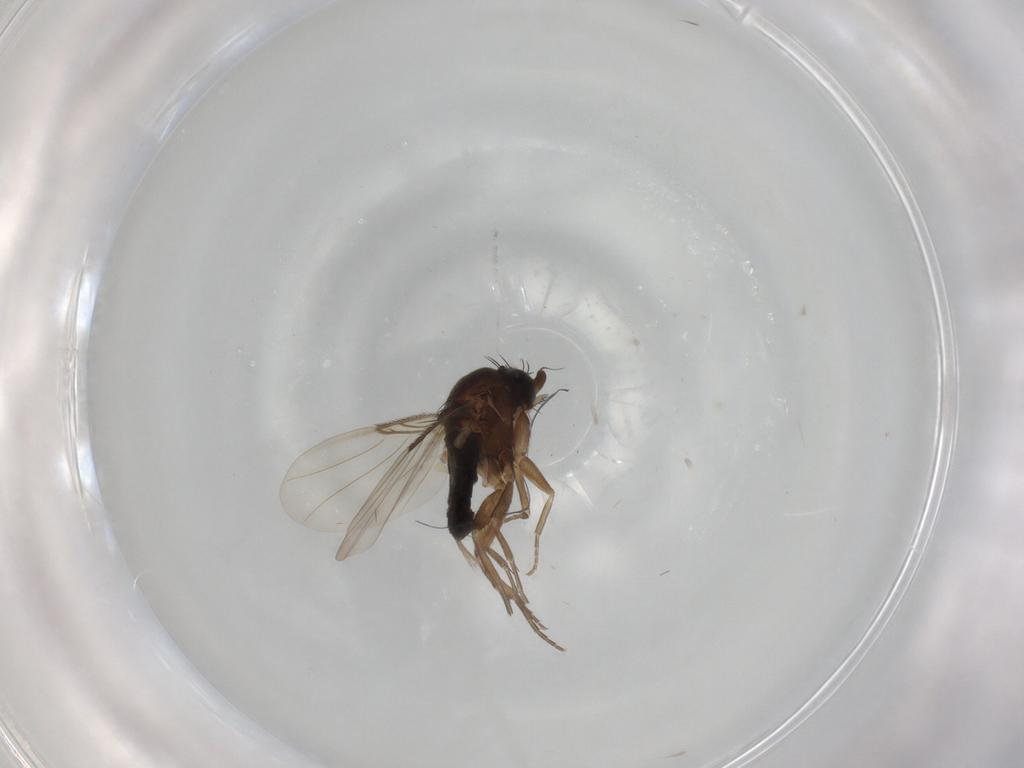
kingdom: Animalia
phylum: Arthropoda
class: Insecta
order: Diptera
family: Phoridae
